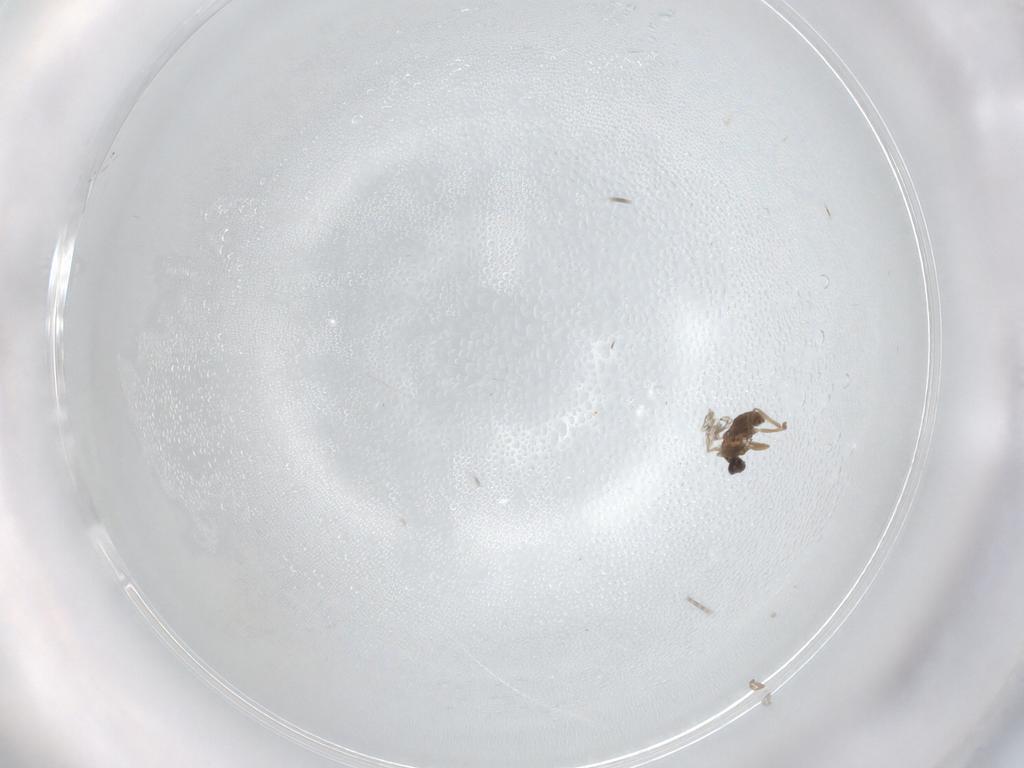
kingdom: Animalia
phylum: Arthropoda
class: Insecta
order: Diptera
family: Cecidomyiidae
